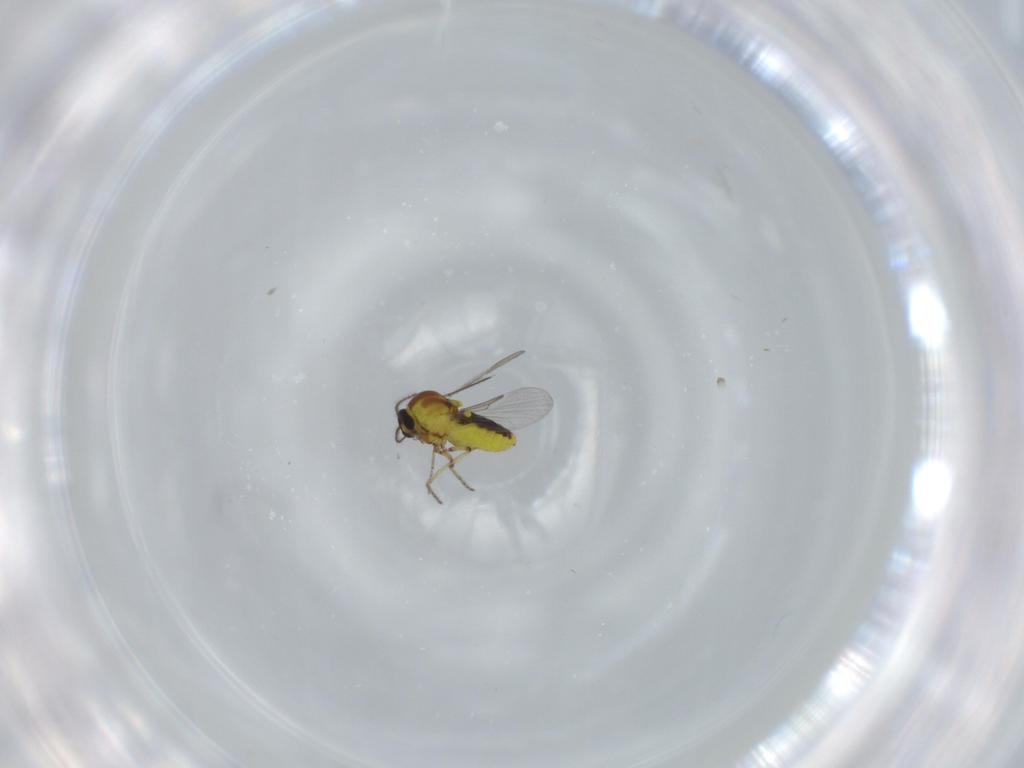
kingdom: Animalia
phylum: Arthropoda
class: Insecta
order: Diptera
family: Ceratopogonidae
